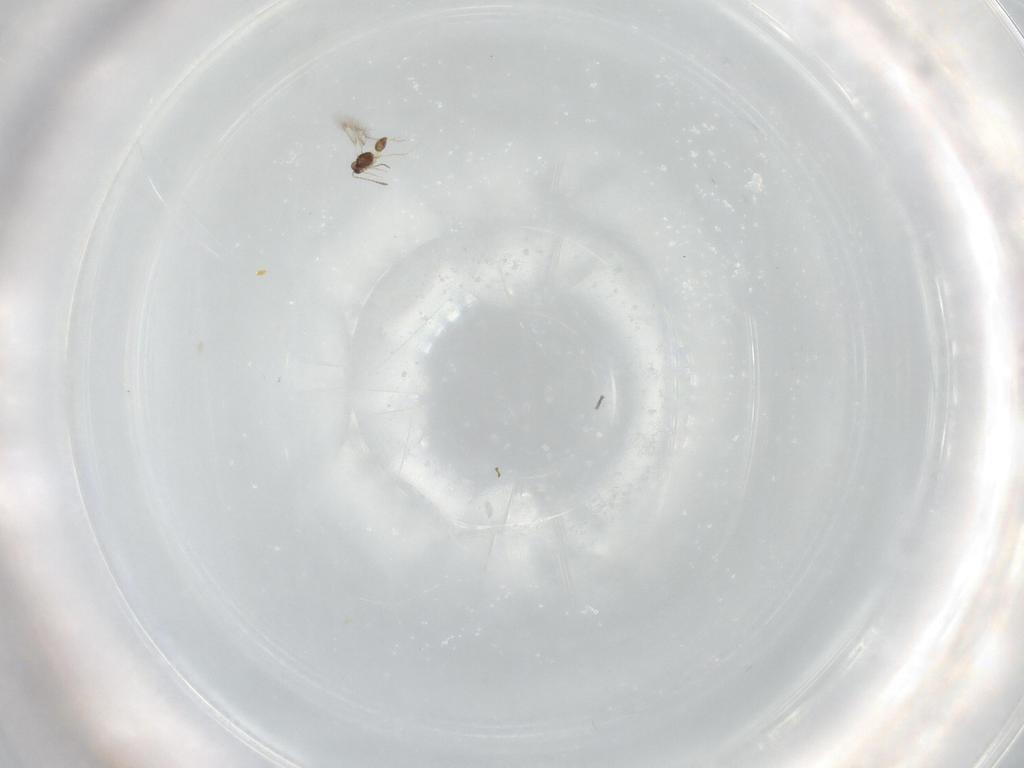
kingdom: Animalia
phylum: Arthropoda
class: Insecta
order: Hymenoptera
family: Mymarommatidae
